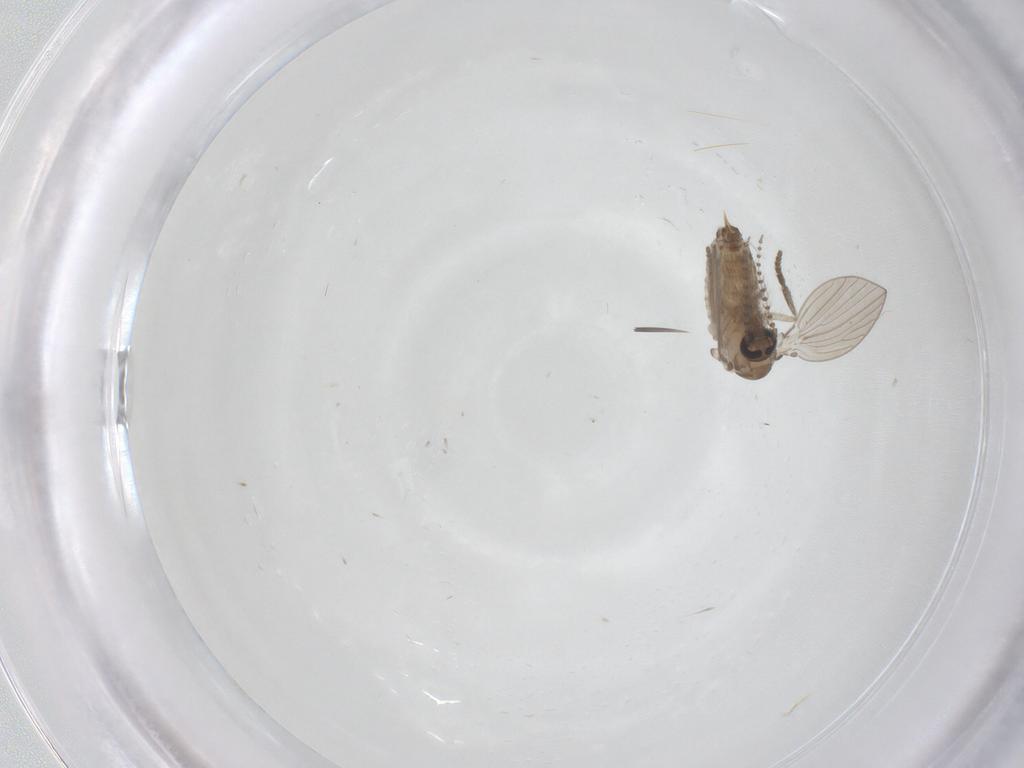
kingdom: Animalia
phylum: Arthropoda
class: Insecta
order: Diptera
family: Psychodidae
